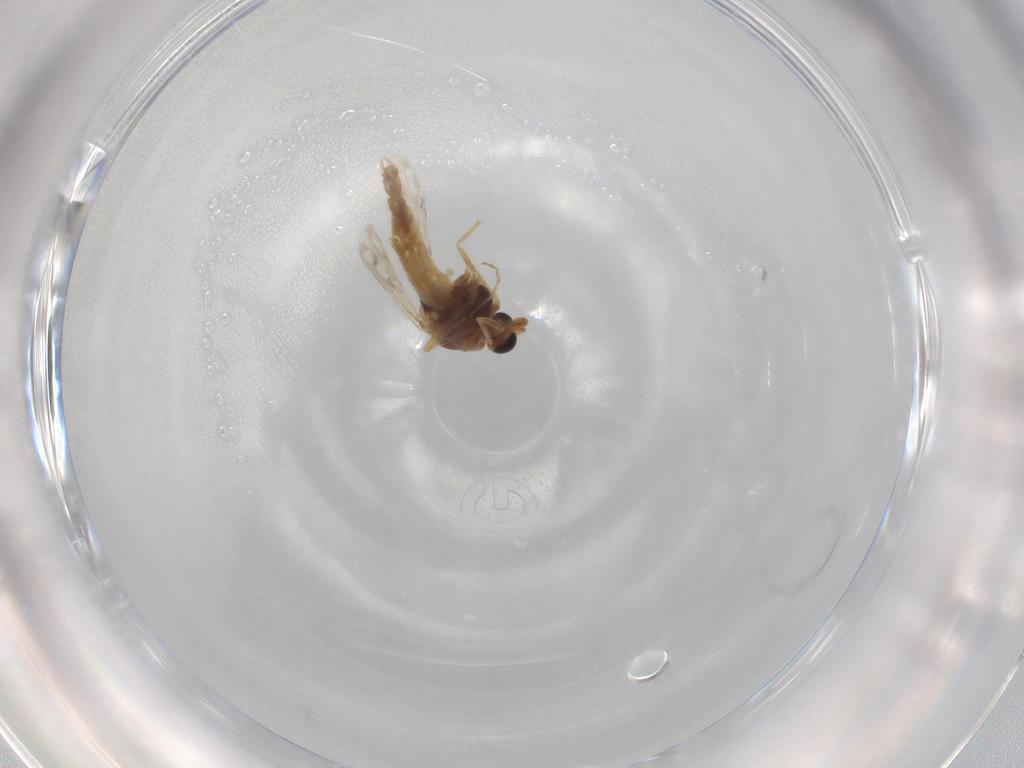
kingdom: Animalia
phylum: Arthropoda
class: Insecta
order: Diptera
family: Chironomidae
